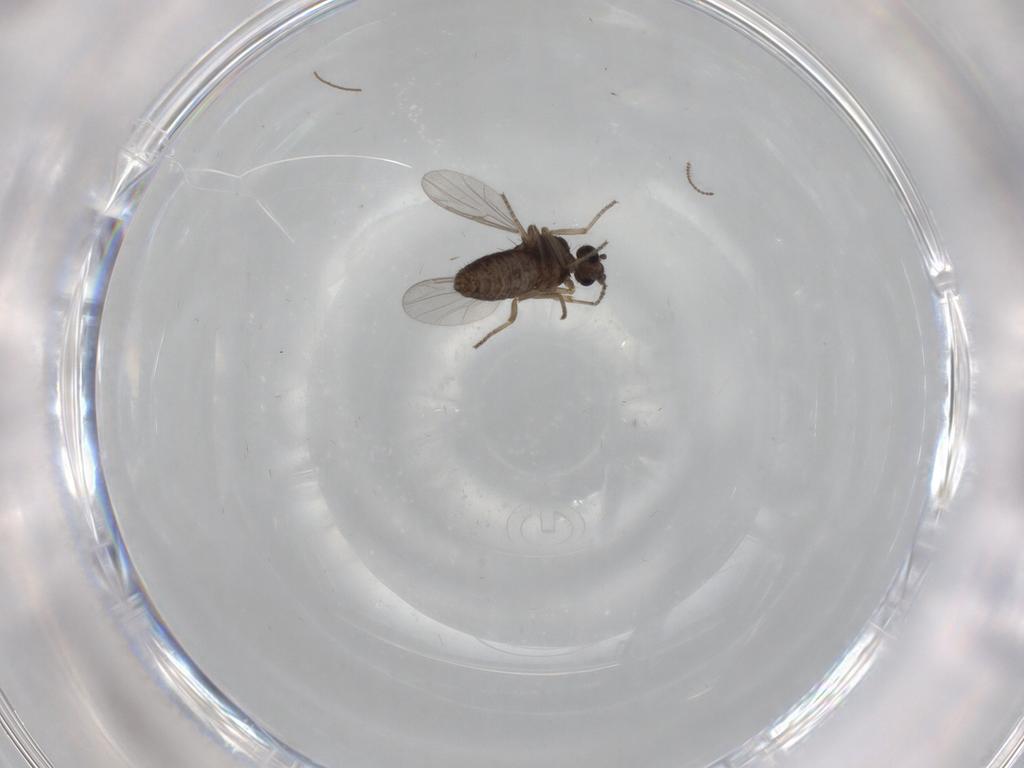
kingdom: Animalia
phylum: Arthropoda
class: Insecta
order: Diptera
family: Ceratopogonidae
